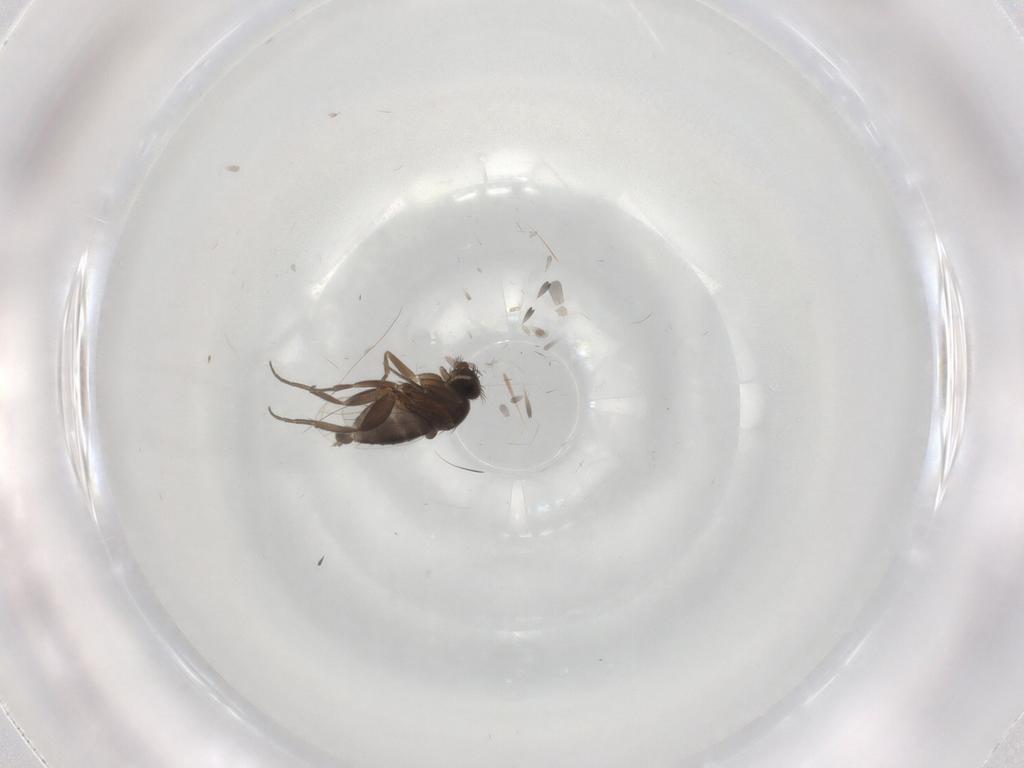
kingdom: Animalia
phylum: Arthropoda
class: Insecta
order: Diptera
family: Phoridae
